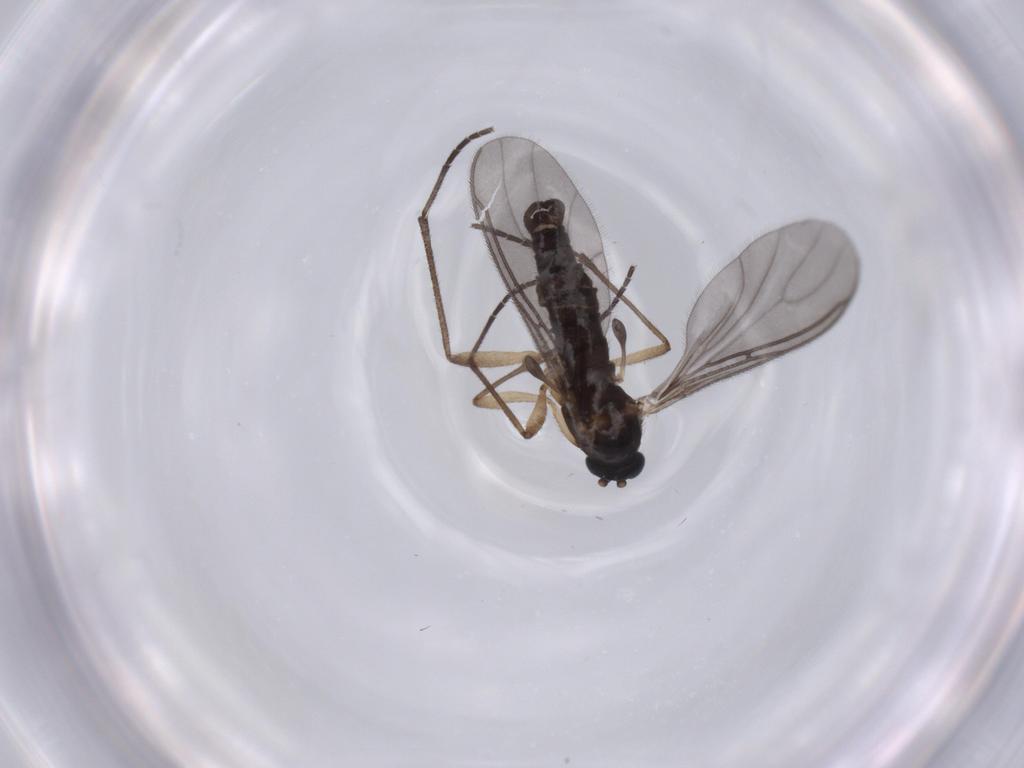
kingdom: Animalia
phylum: Arthropoda
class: Insecta
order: Diptera
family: Sciaridae
